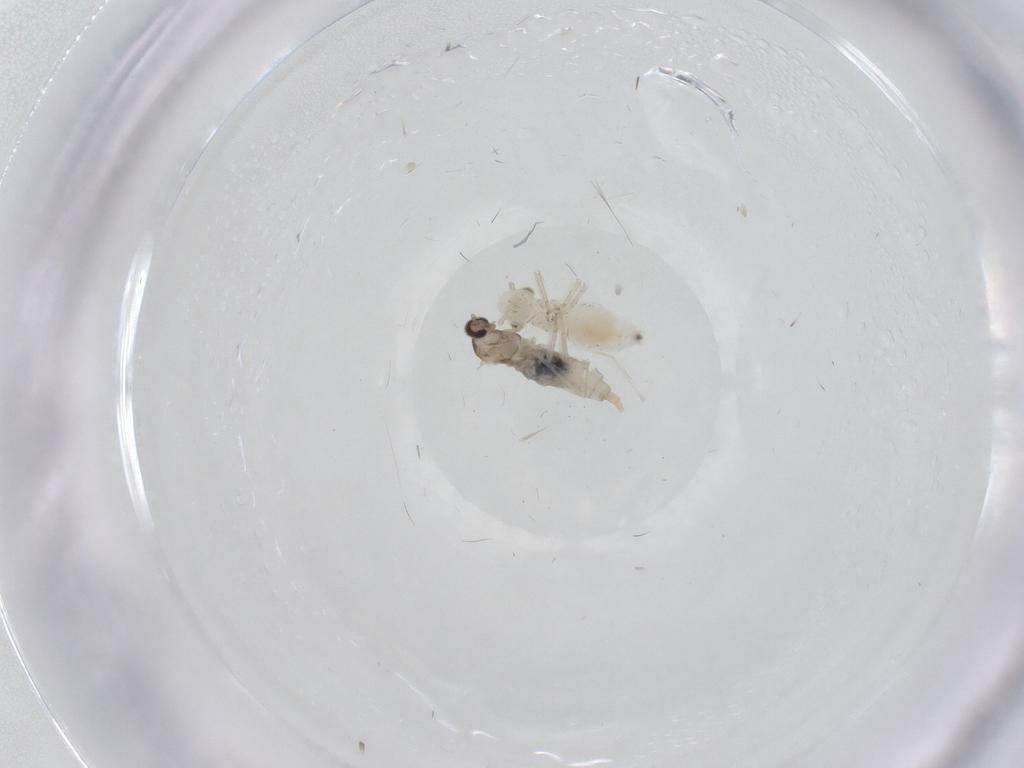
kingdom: Animalia
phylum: Arthropoda
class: Insecta
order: Diptera
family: Cecidomyiidae
